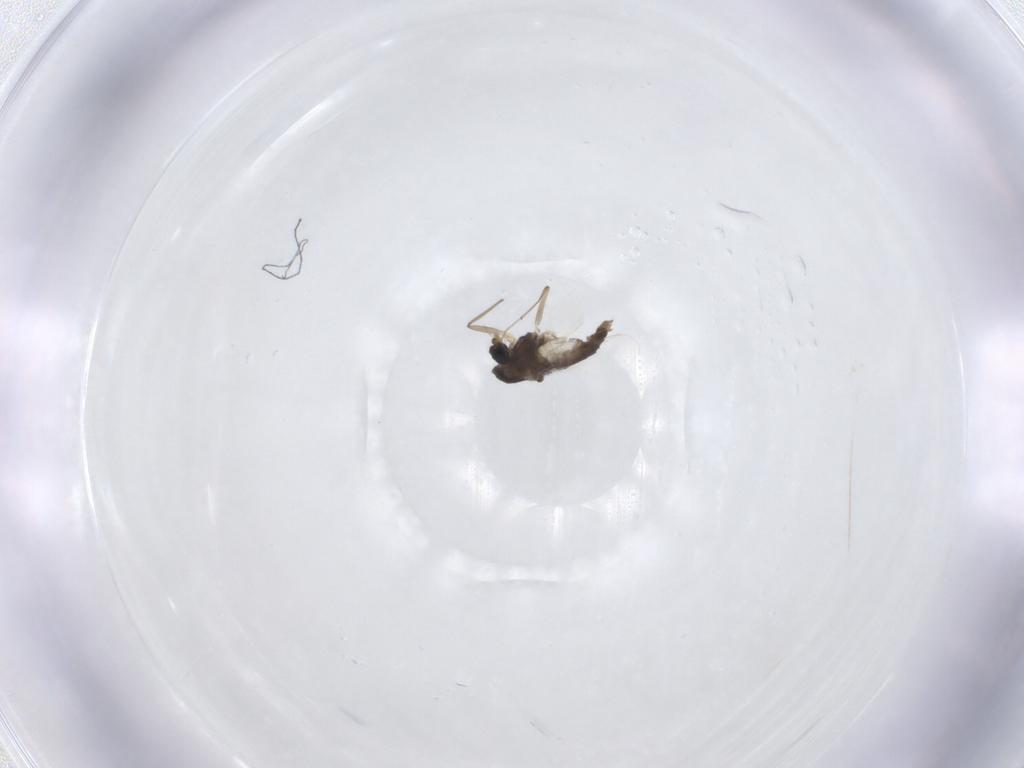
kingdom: Animalia
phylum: Arthropoda
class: Insecta
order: Diptera
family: Chironomidae
